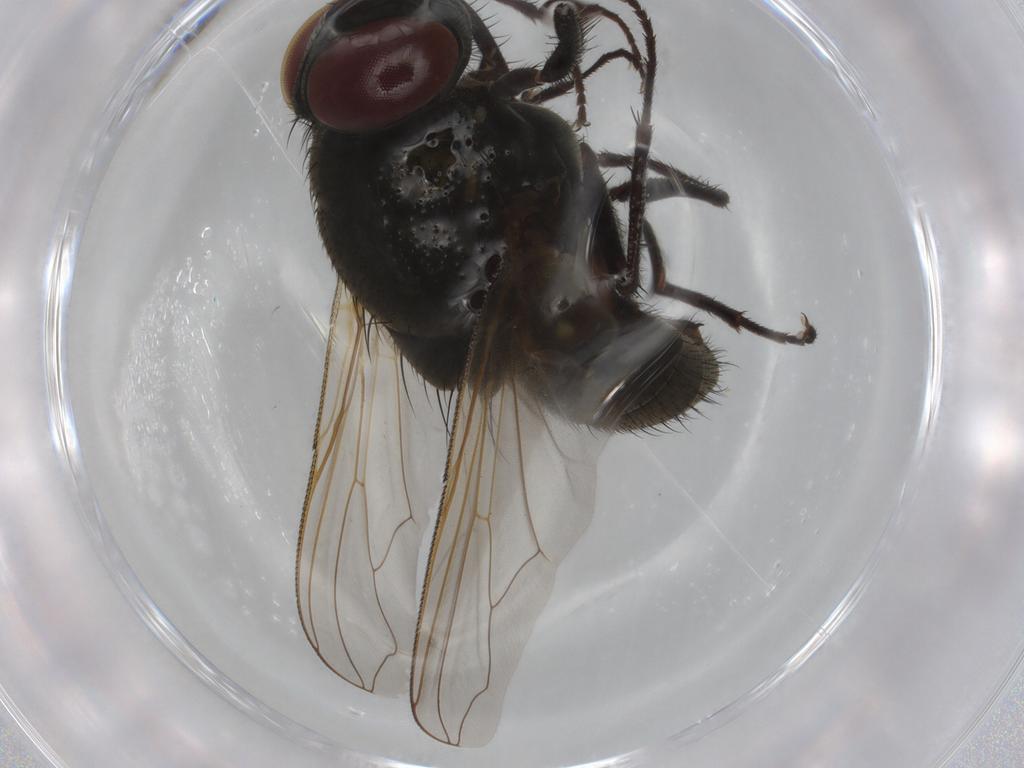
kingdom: Animalia
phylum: Arthropoda
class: Insecta
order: Diptera
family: Muscidae
